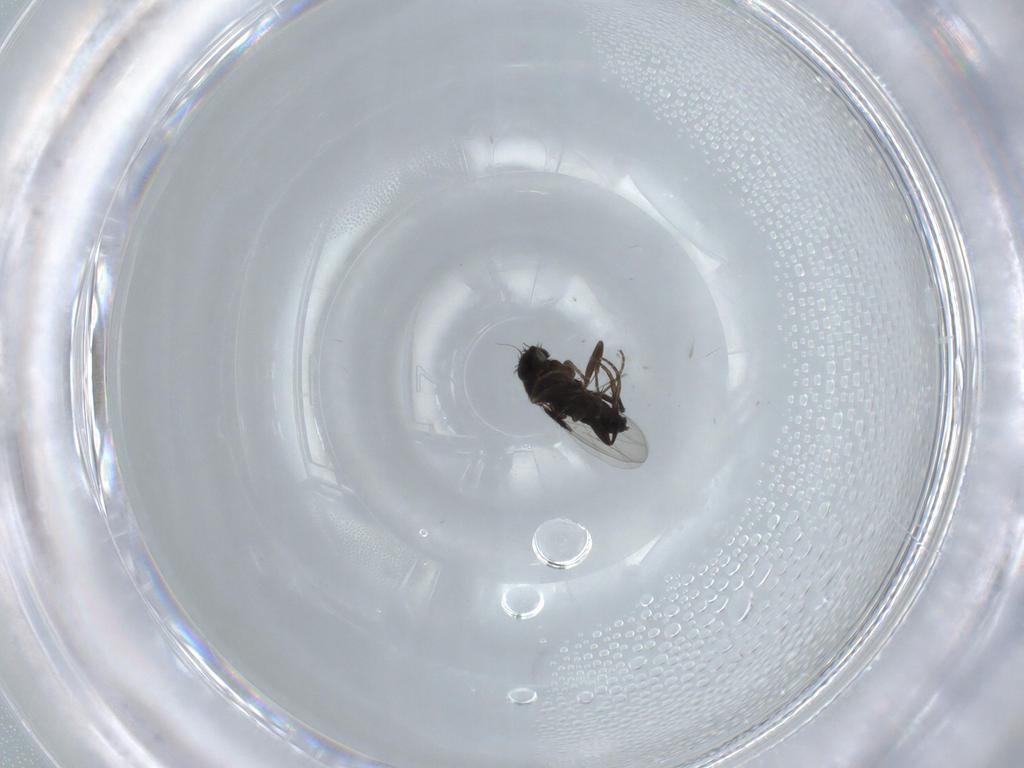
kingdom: Animalia
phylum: Arthropoda
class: Insecta
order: Diptera
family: Phoridae
